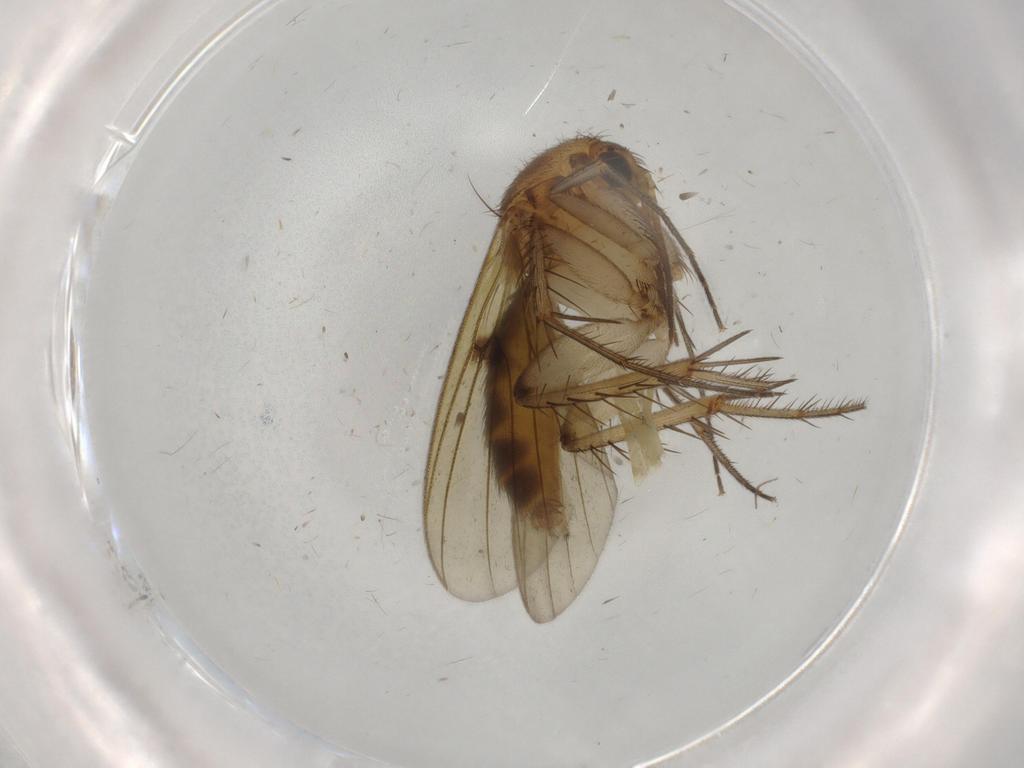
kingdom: Animalia
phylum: Arthropoda
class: Insecta
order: Diptera
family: Mycetophilidae
